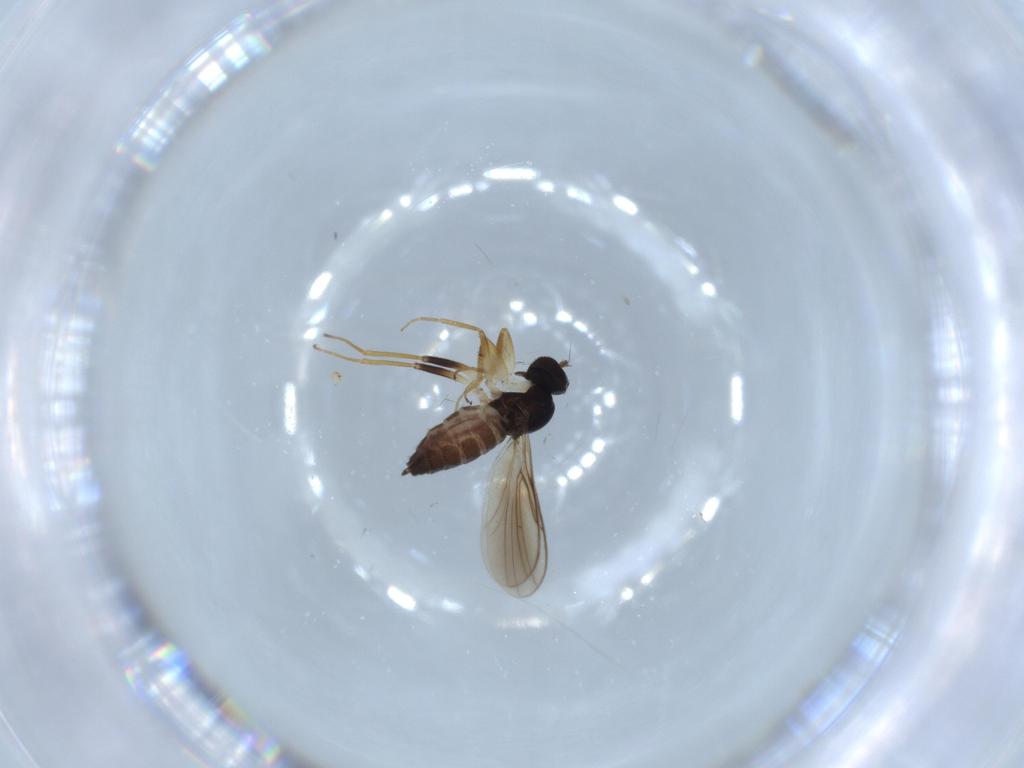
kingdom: Animalia
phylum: Arthropoda
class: Insecta
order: Diptera
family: Hybotidae
